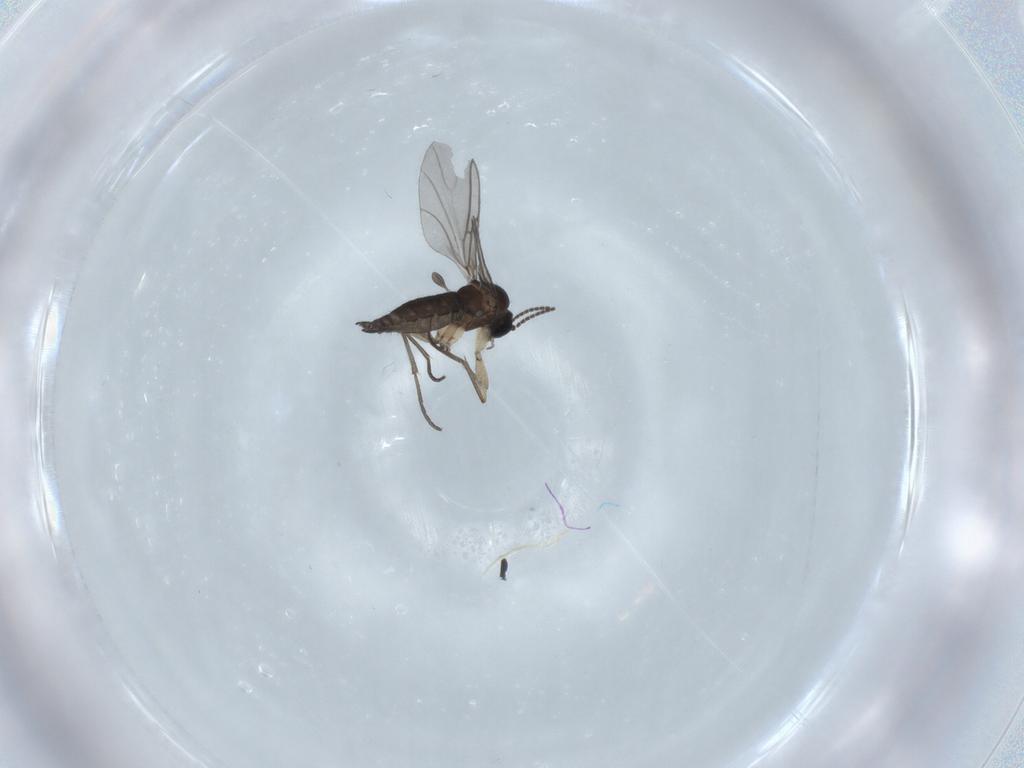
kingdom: Animalia
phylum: Arthropoda
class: Insecta
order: Diptera
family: Sciaridae
